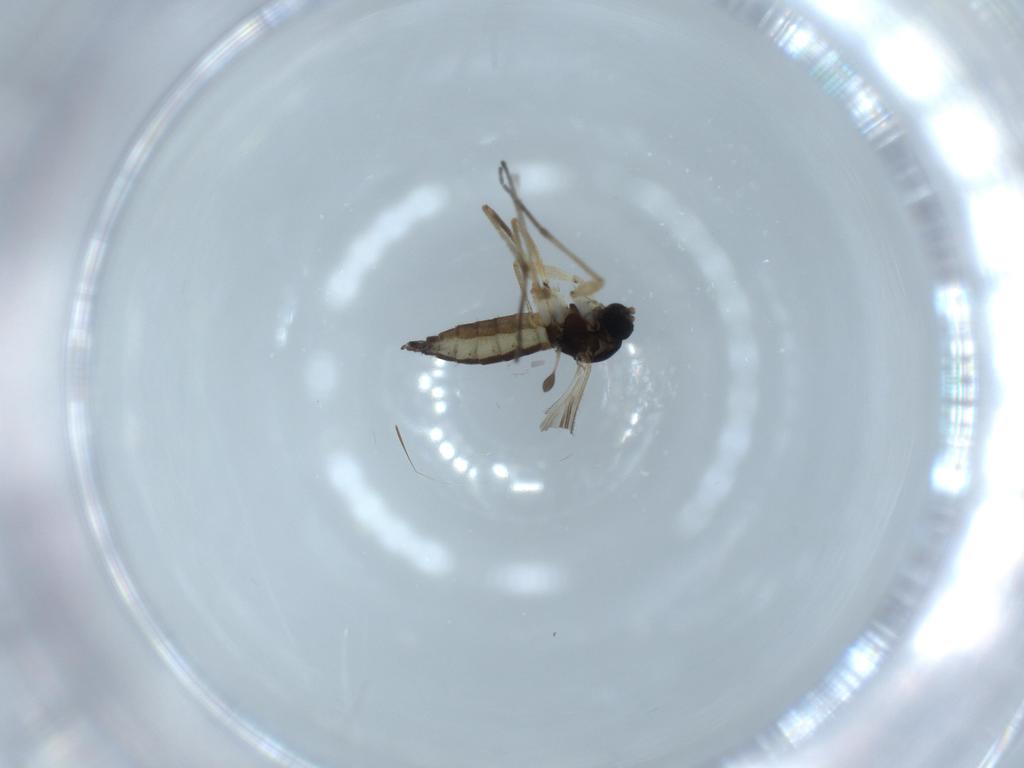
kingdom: Animalia
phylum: Arthropoda
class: Insecta
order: Diptera
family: Sciaridae
